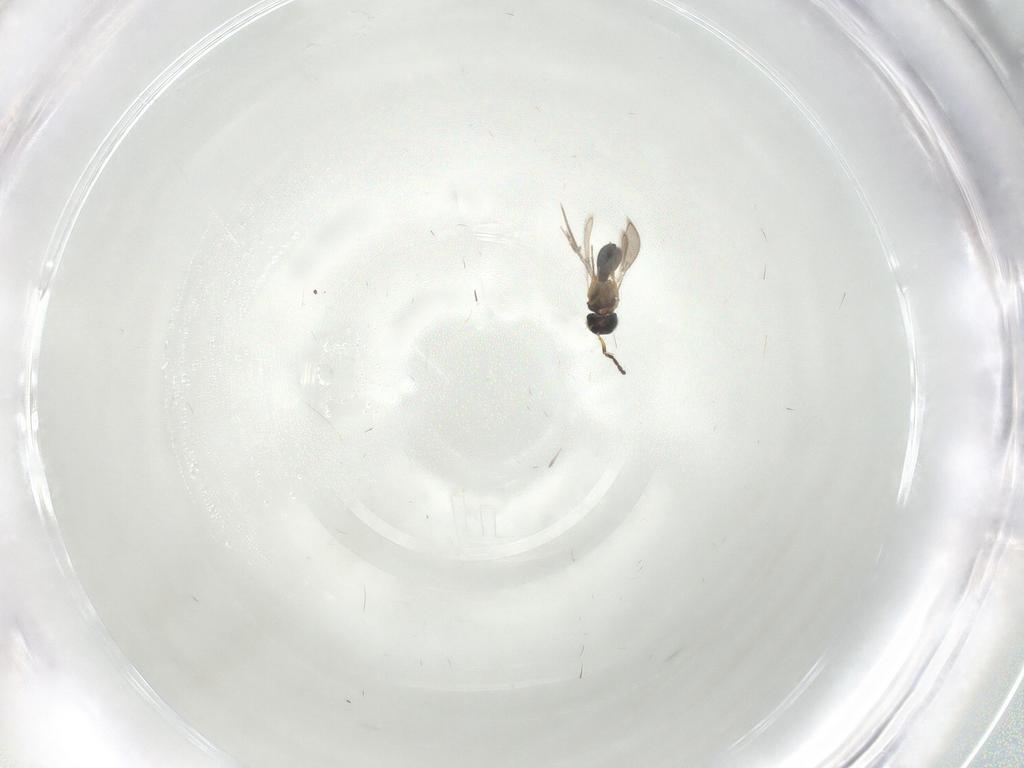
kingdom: Animalia
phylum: Arthropoda
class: Insecta
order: Hymenoptera
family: Scelionidae
